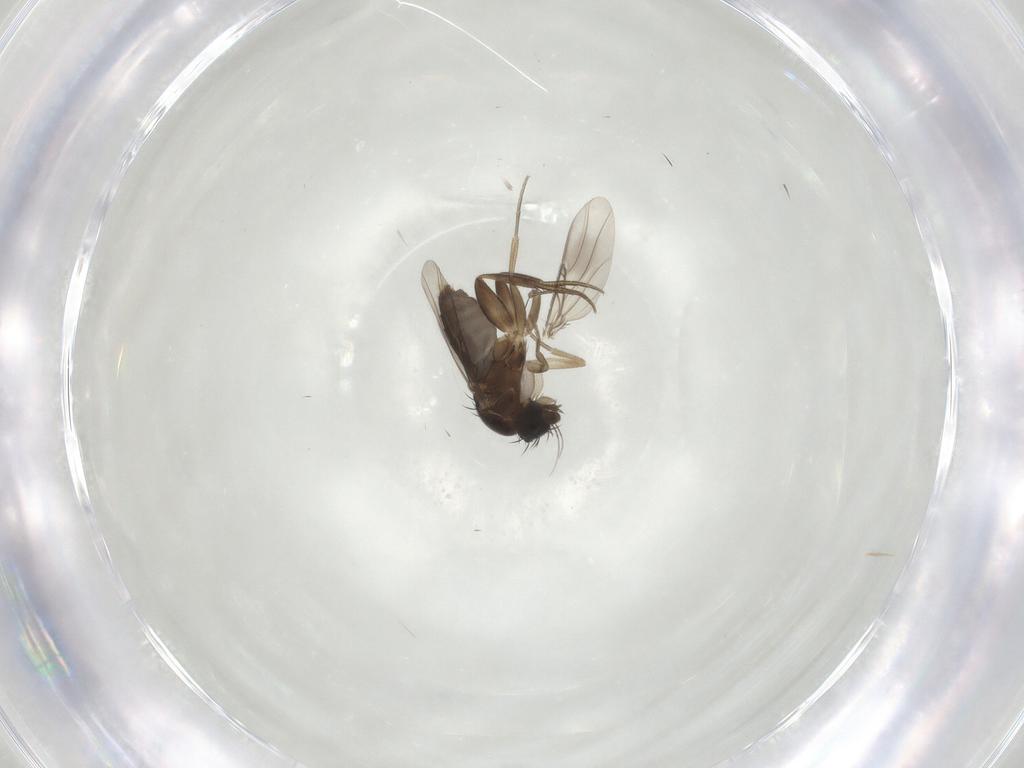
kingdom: Animalia
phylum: Arthropoda
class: Insecta
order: Diptera
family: Phoridae
